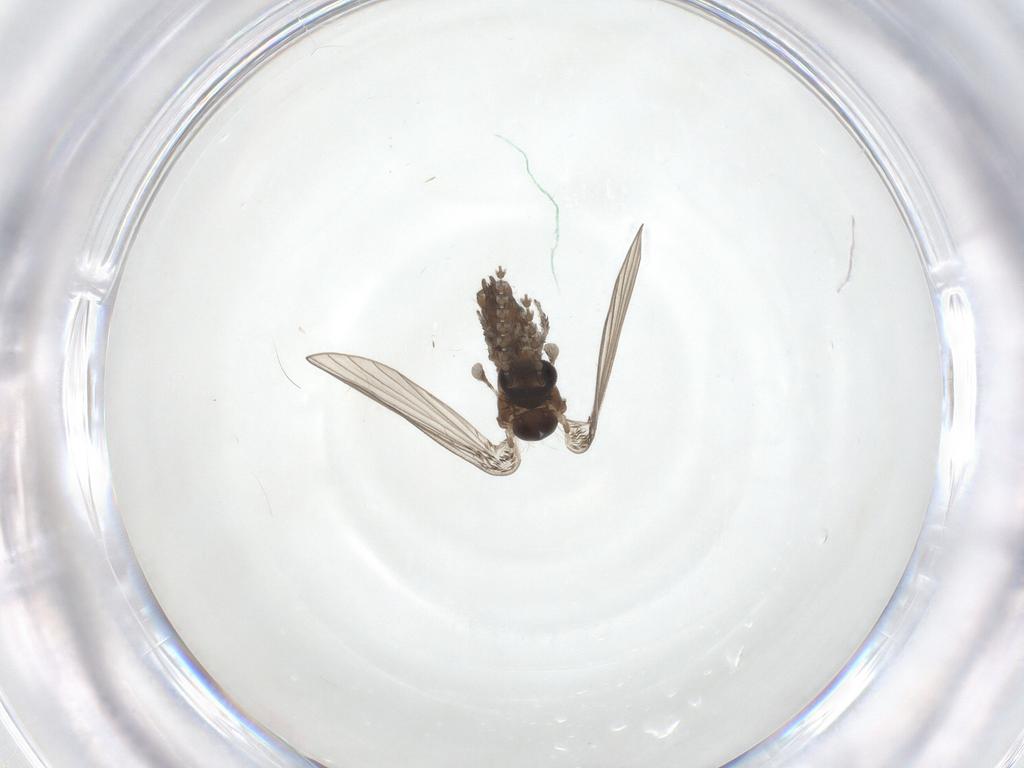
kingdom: Animalia
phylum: Arthropoda
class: Insecta
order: Diptera
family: Psychodidae
